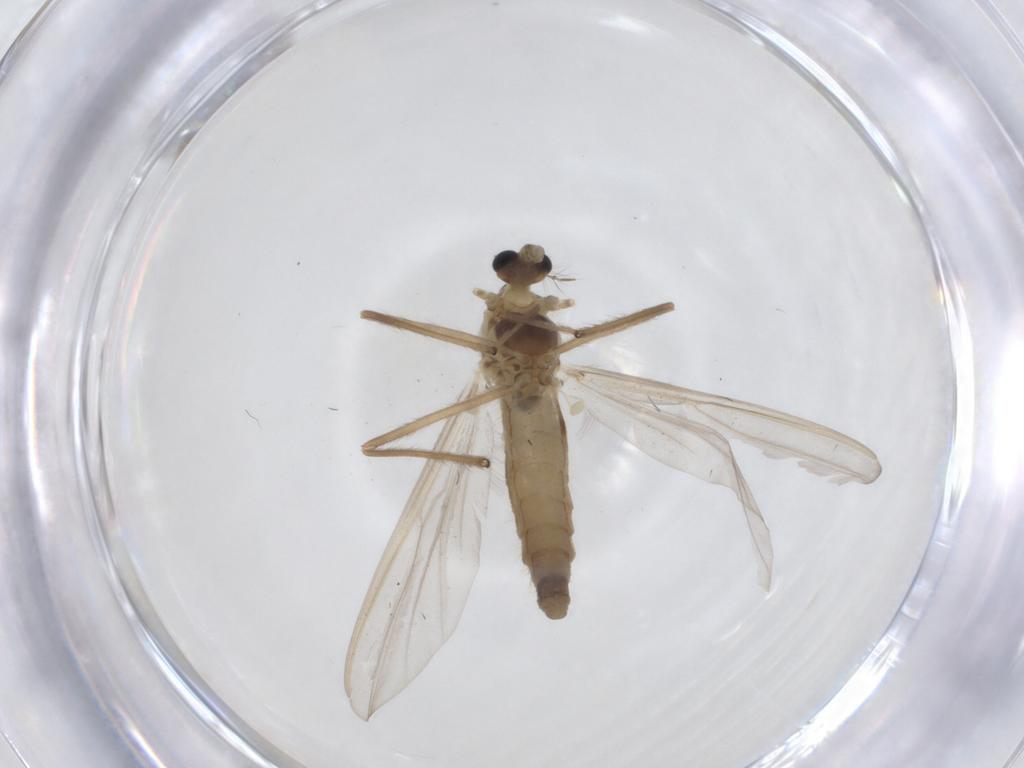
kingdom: Animalia
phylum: Arthropoda
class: Insecta
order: Diptera
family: Chironomidae
